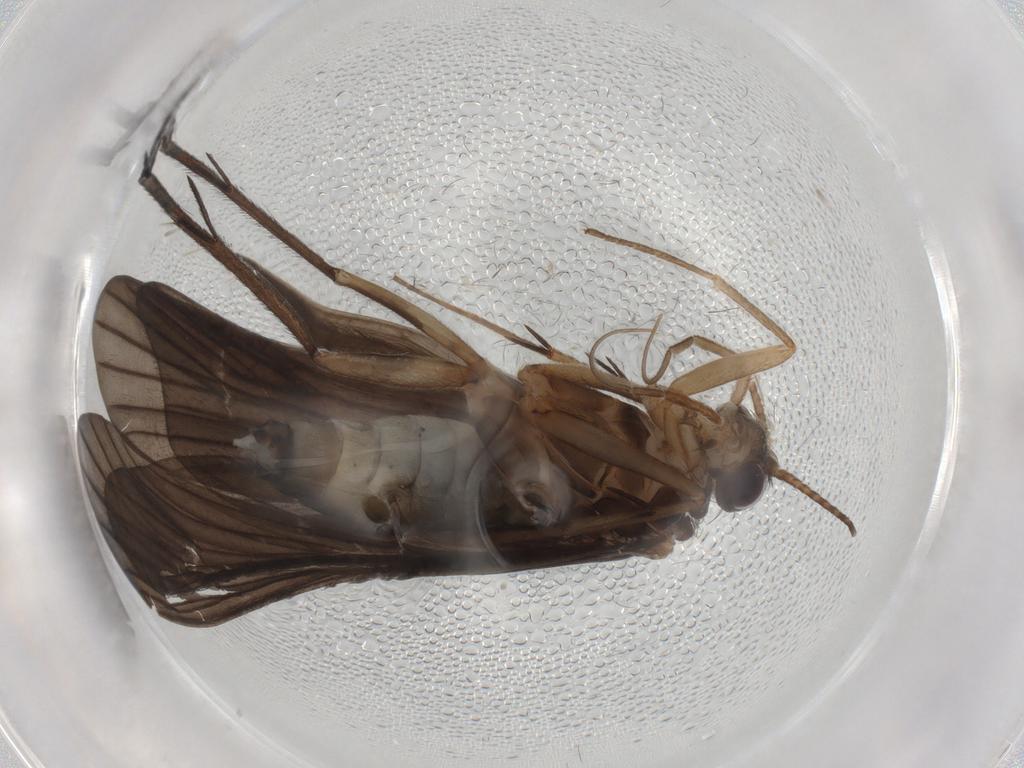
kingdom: Animalia
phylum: Arthropoda
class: Insecta
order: Trichoptera
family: Philopotamidae
